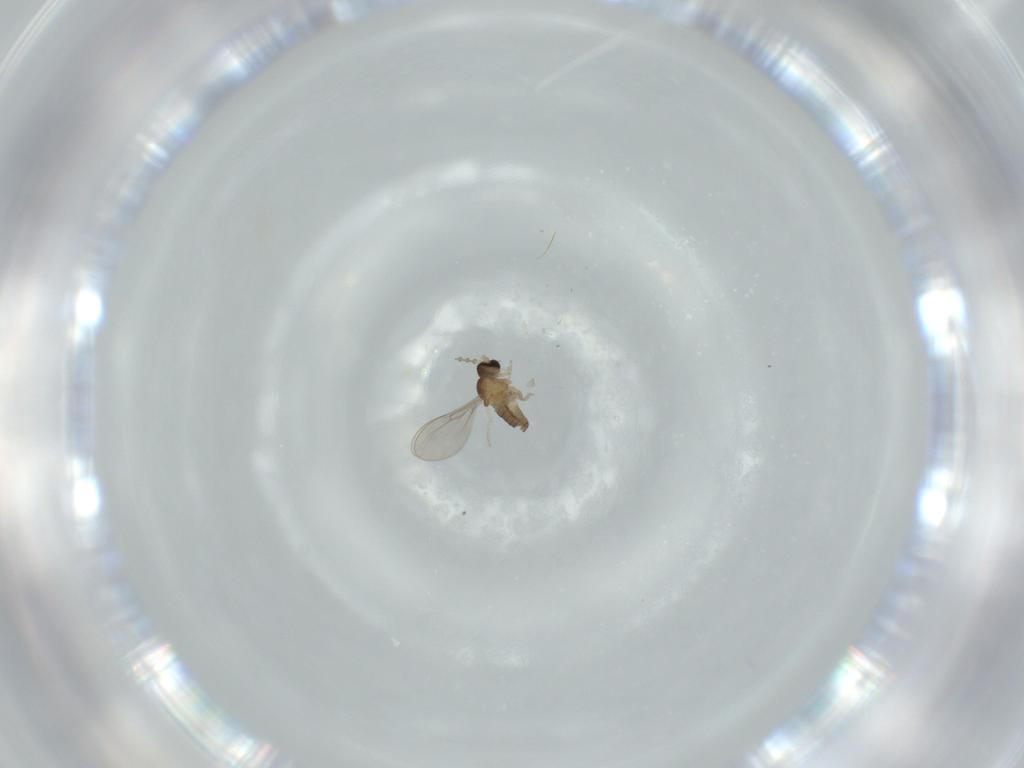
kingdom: Animalia
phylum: Arthropoda
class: Insecta
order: Diptera
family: Cecidomyiidae
